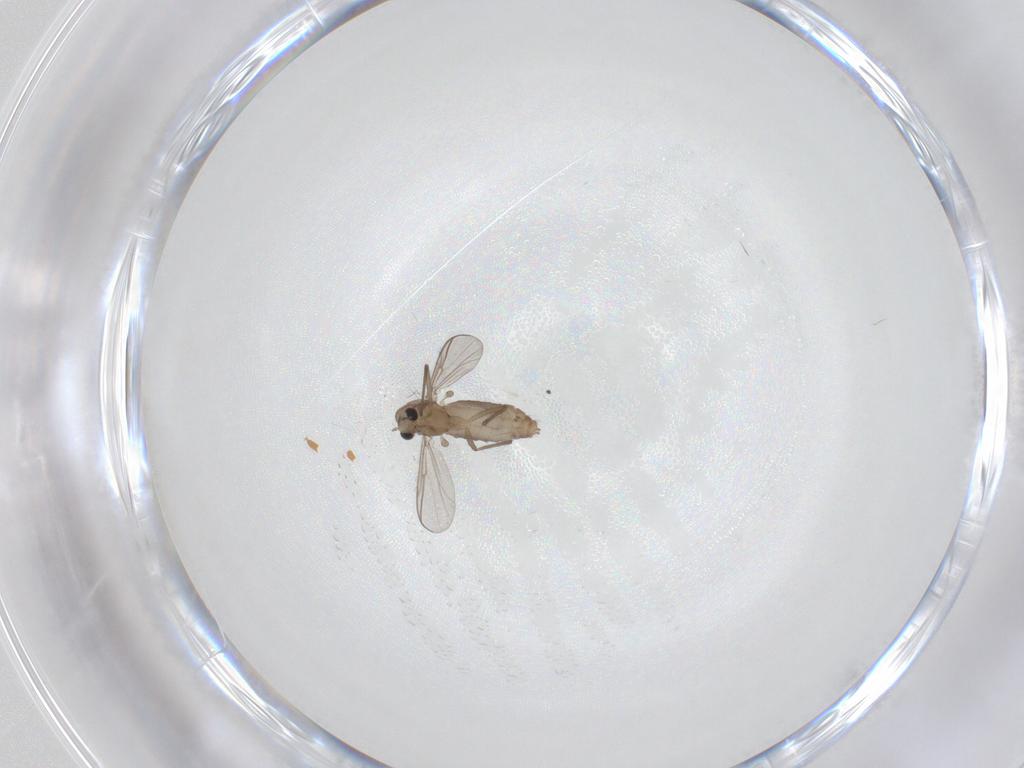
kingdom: Animalia
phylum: Arthropoda
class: Insecta
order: Diptera
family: Chironomidae
